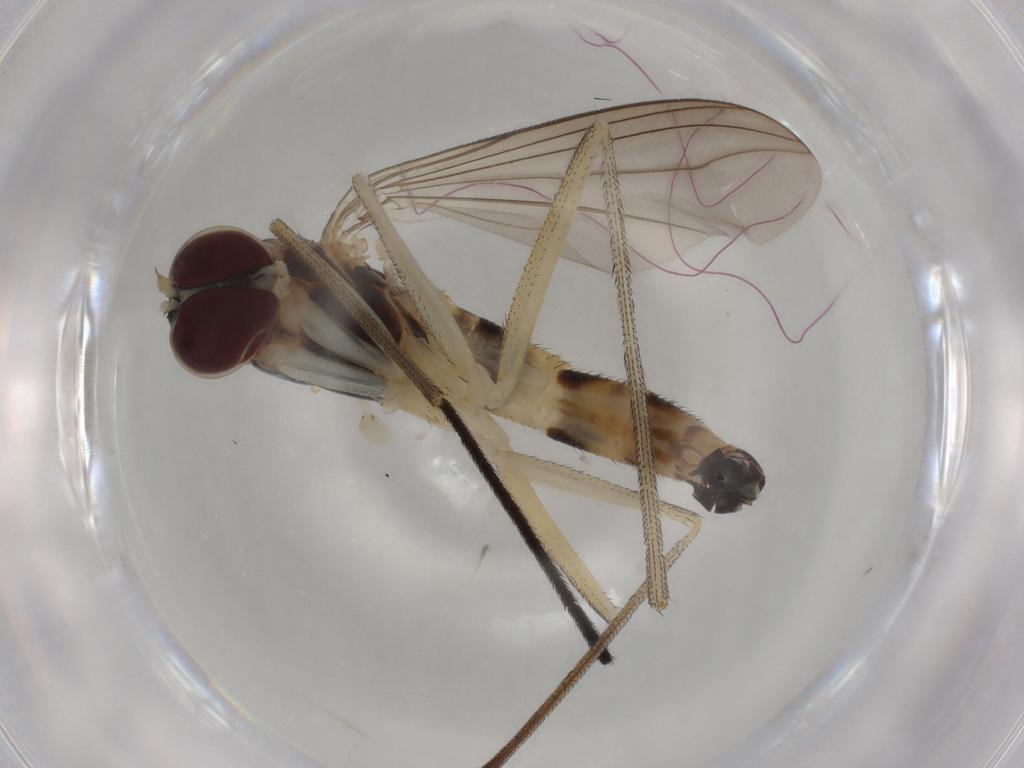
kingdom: Animalia
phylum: Arthropoda
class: Insecta
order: Diptera
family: Cecidomyiidae
